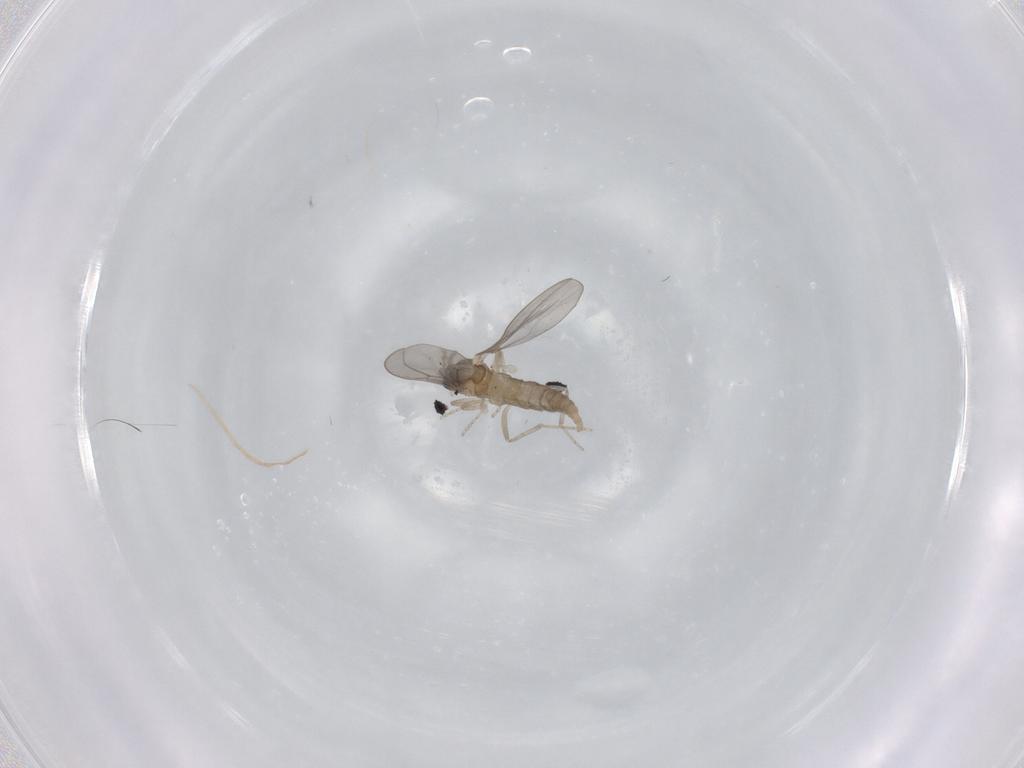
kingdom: Animalia
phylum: Arthropoda
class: Insecta
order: Diptera
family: Cecidomyiidae
